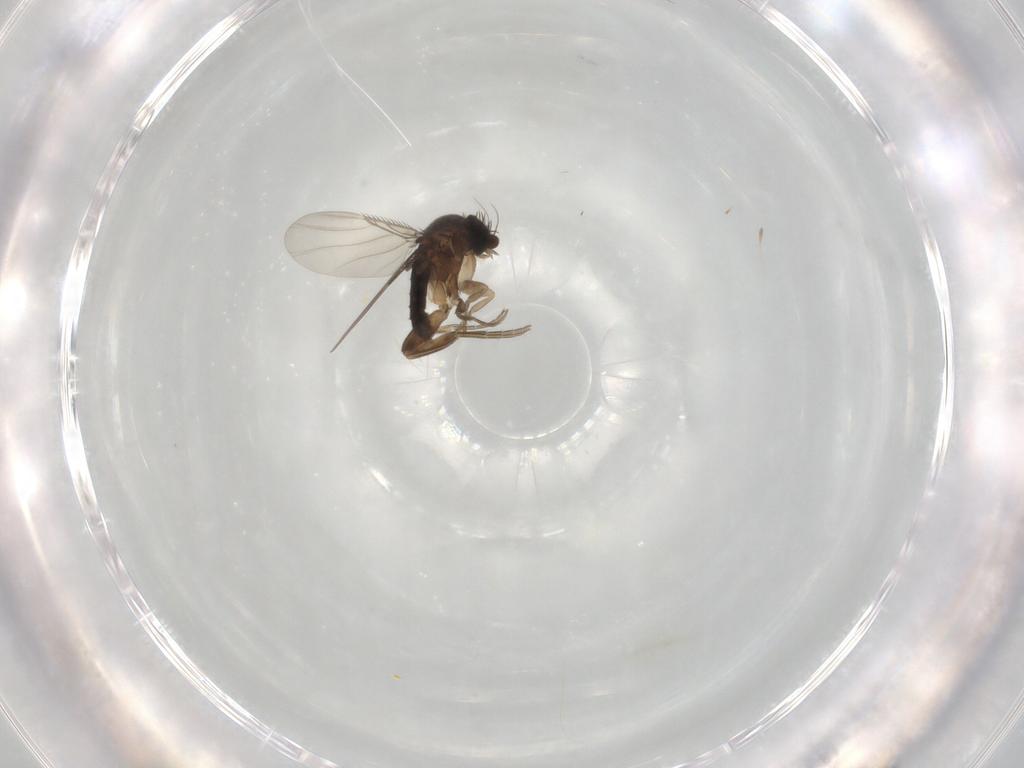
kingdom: Animalia
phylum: Arthropoda
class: Insecta
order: Diptera
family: Phoridae
